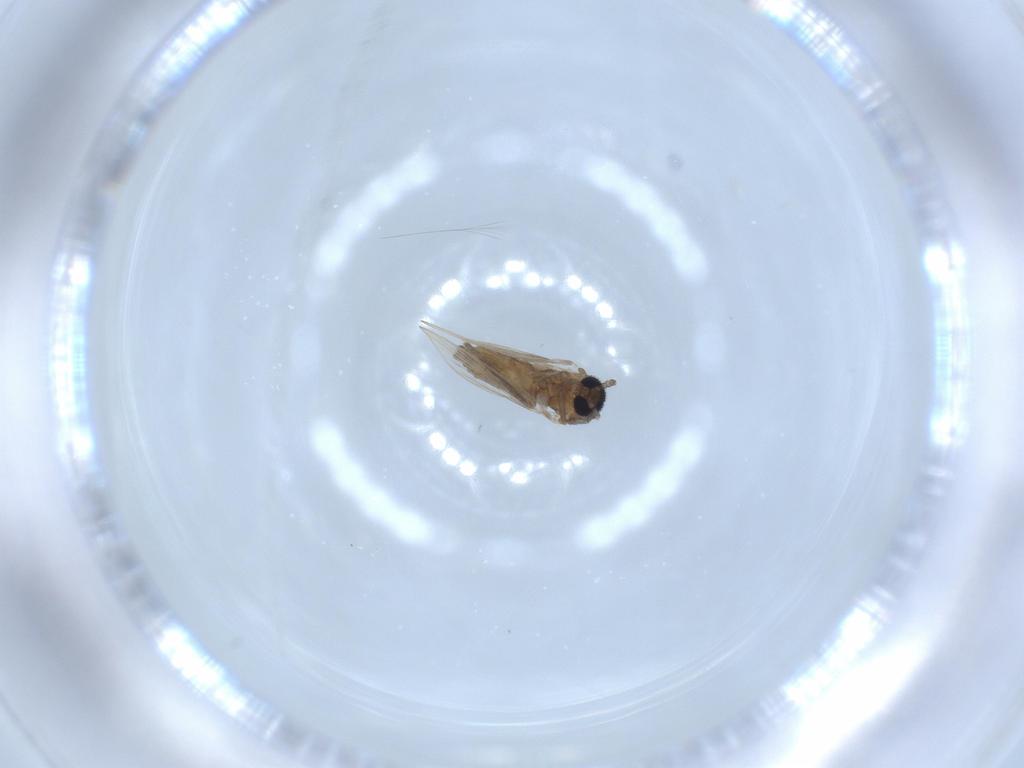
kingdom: Animalia
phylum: Arthropoda
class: Insecta
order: Diptera
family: Psychodidae
